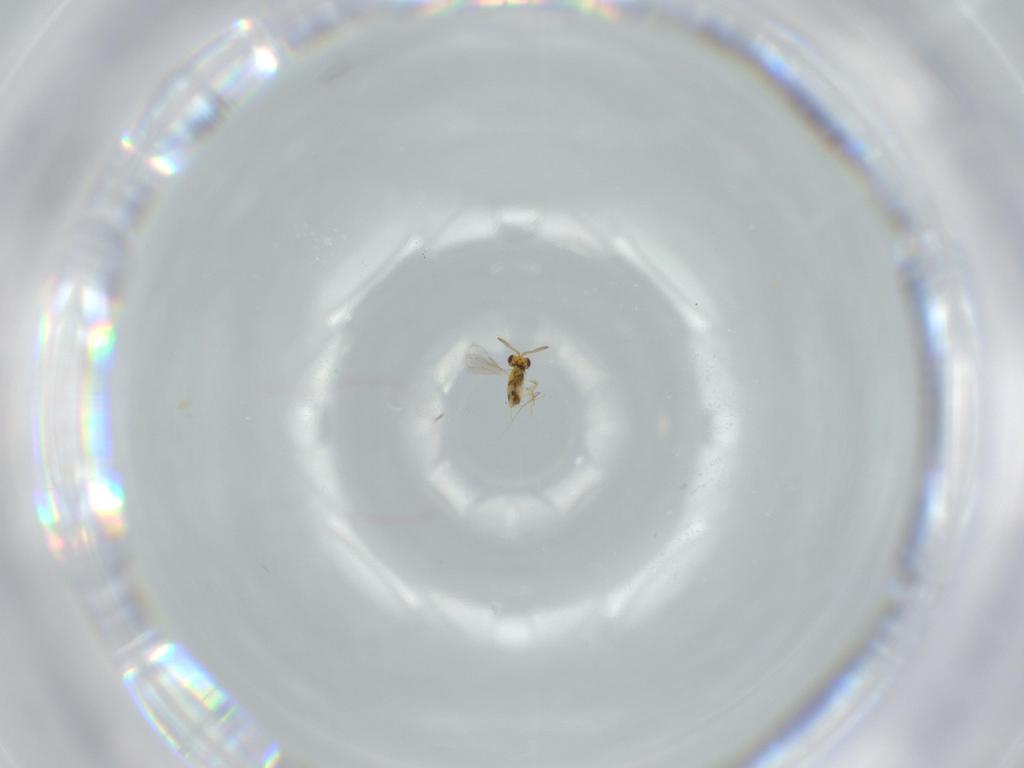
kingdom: Animalia
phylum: Arthropoda
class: Insecta
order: Hymenoptera
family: Aphelinidae
